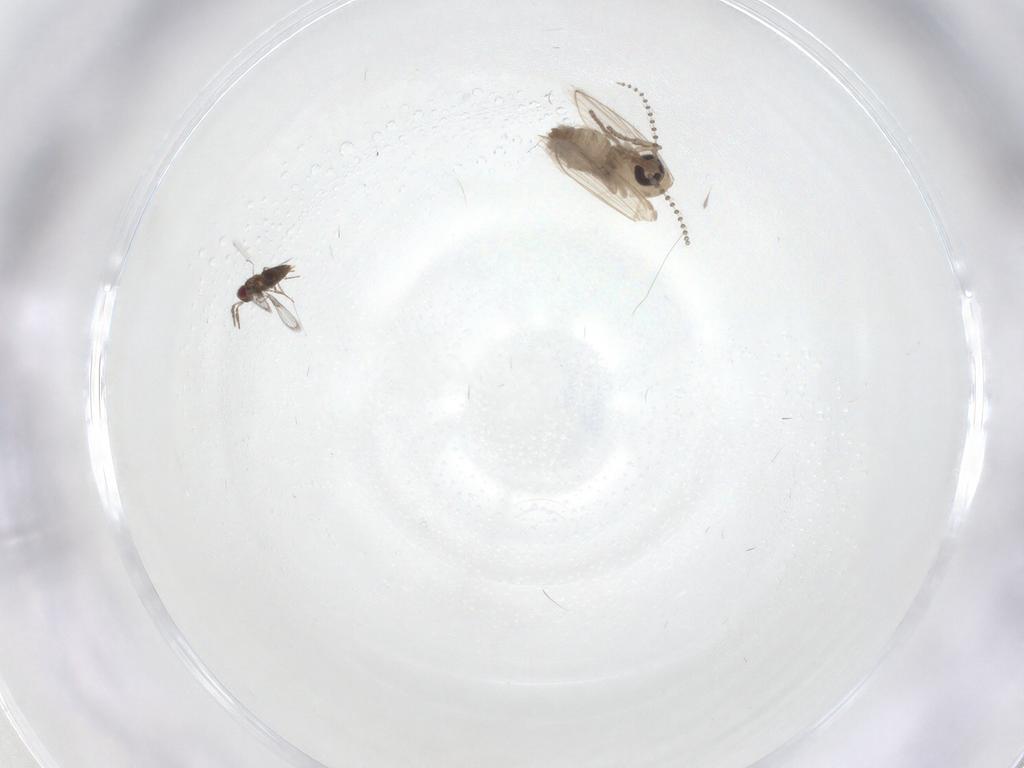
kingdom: Animalia
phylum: Arthropoda
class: Insecta
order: Diptera
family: Psychodidae
